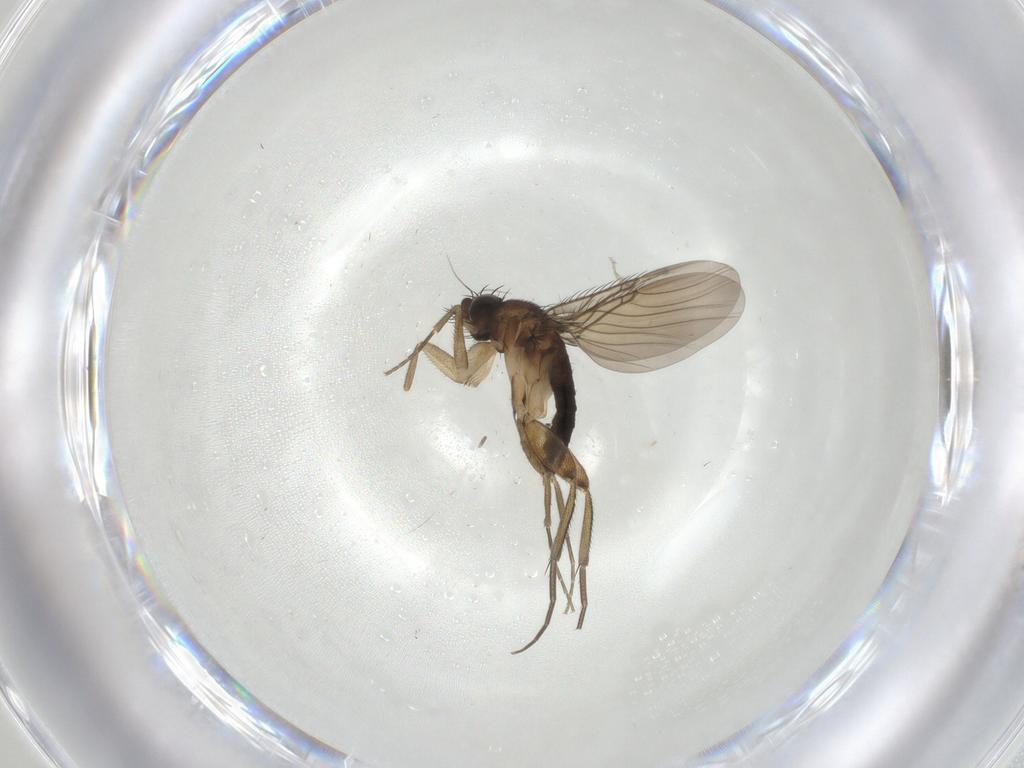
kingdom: Animalia
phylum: Arthropoda
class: Insecta
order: Diptera
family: Phoridae
